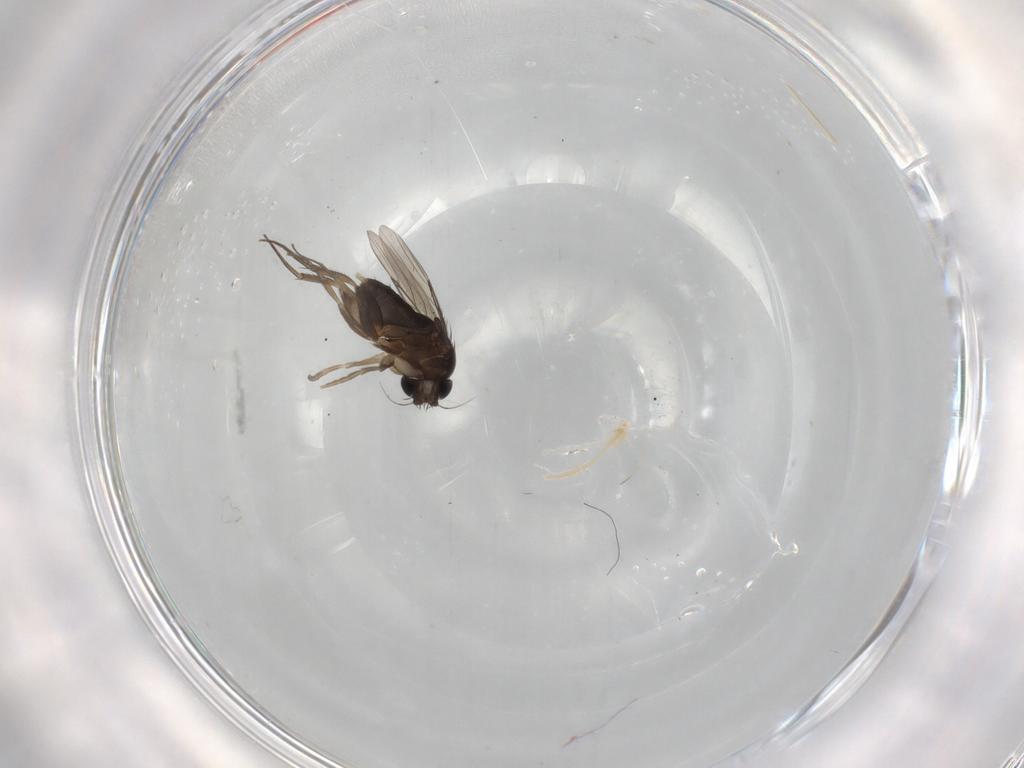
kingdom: Animalia
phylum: Arthropoda
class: Insecta
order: Diptera
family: Phoridae
